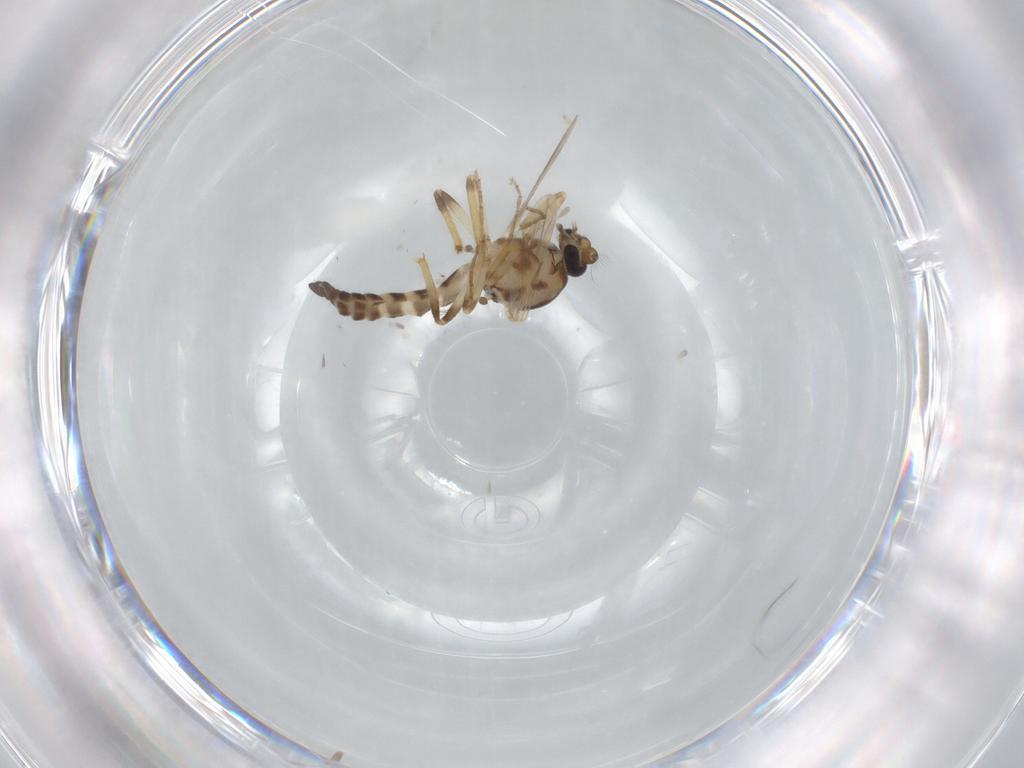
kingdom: Animalia
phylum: Arthropoda
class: Insecta
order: Diptera
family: Ceratopogonidae
